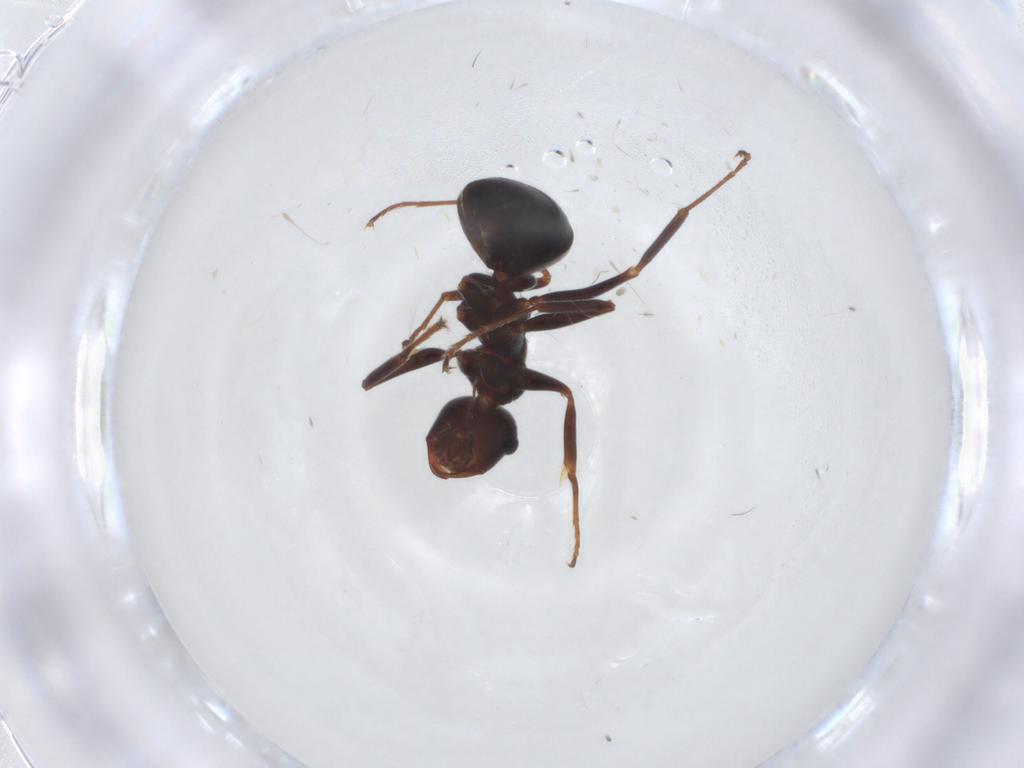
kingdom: Animalia
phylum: Arthropoda
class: Insecta
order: Hymenoptera
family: Formicidae
